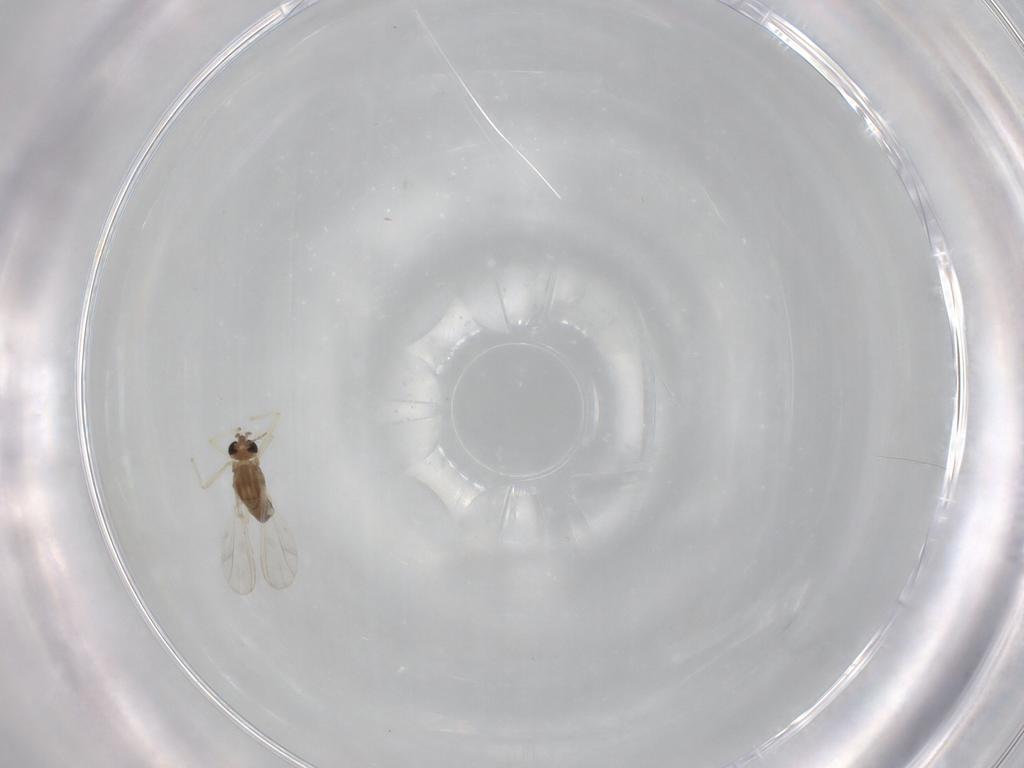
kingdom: Animalia
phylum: Arthropoda
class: Insecta
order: Diptera
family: Chironomidae
